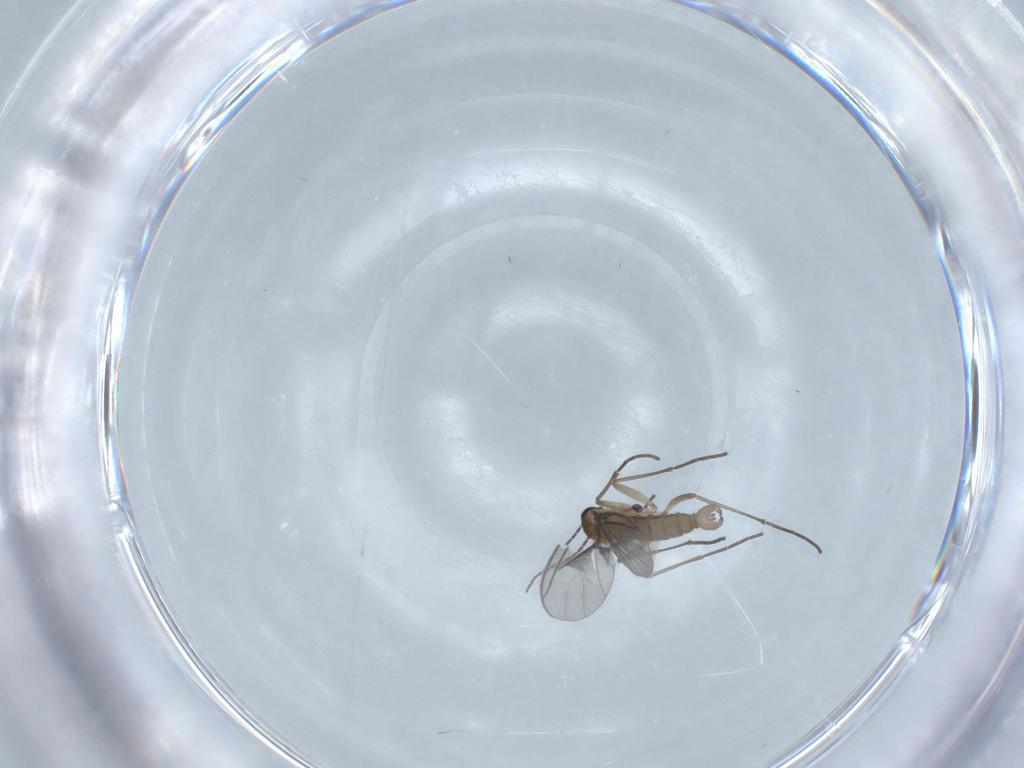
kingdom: Animalia
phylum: Arthropoda
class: Insecta
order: Diptera
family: Sciaridae
